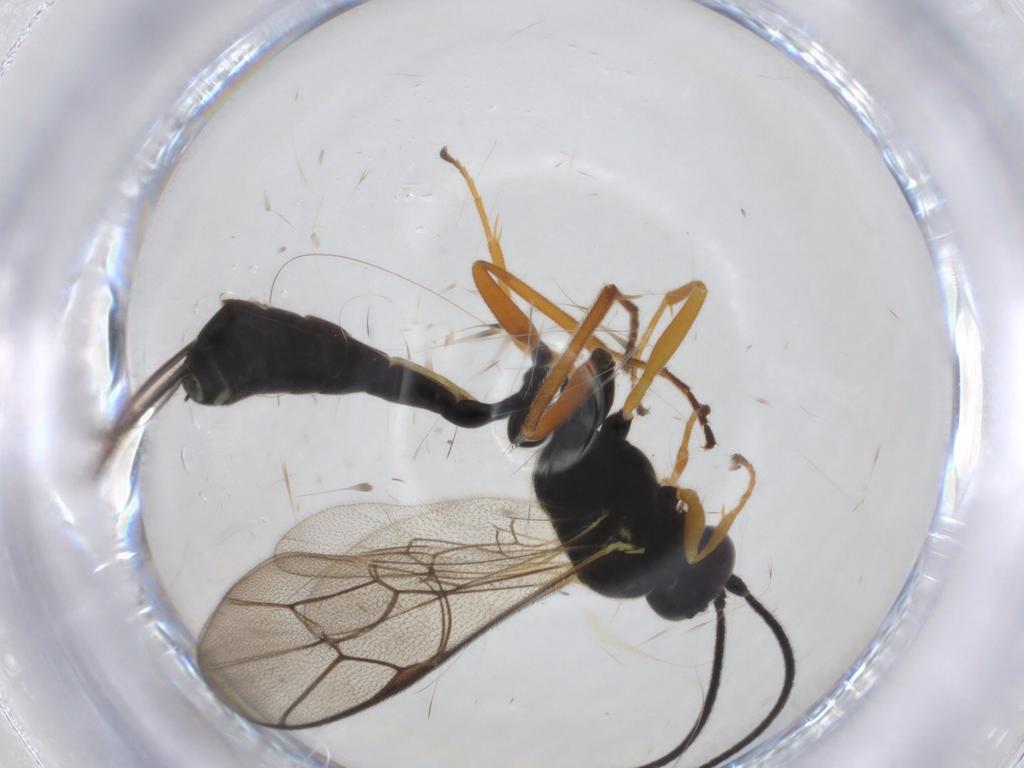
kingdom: Animalia
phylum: Arthropoda
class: Insecta
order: Hymenoptera
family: Ichneumonidae
